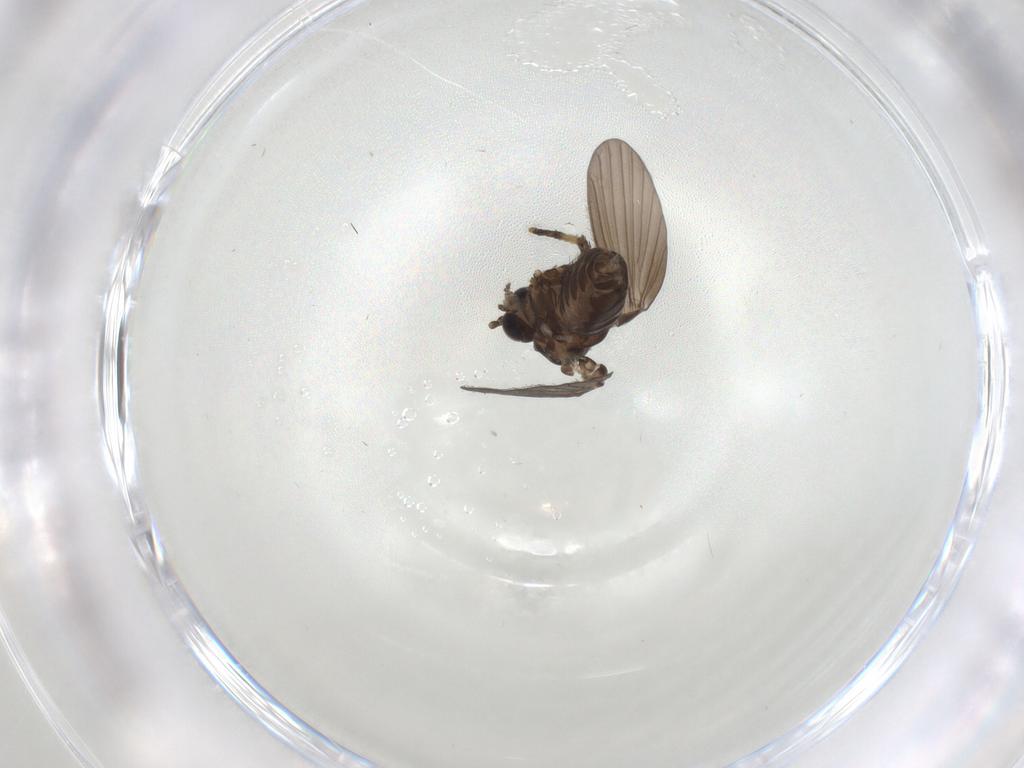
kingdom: Animalia
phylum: Arthropoda
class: Insecta
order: Diptera
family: Psychodidae
